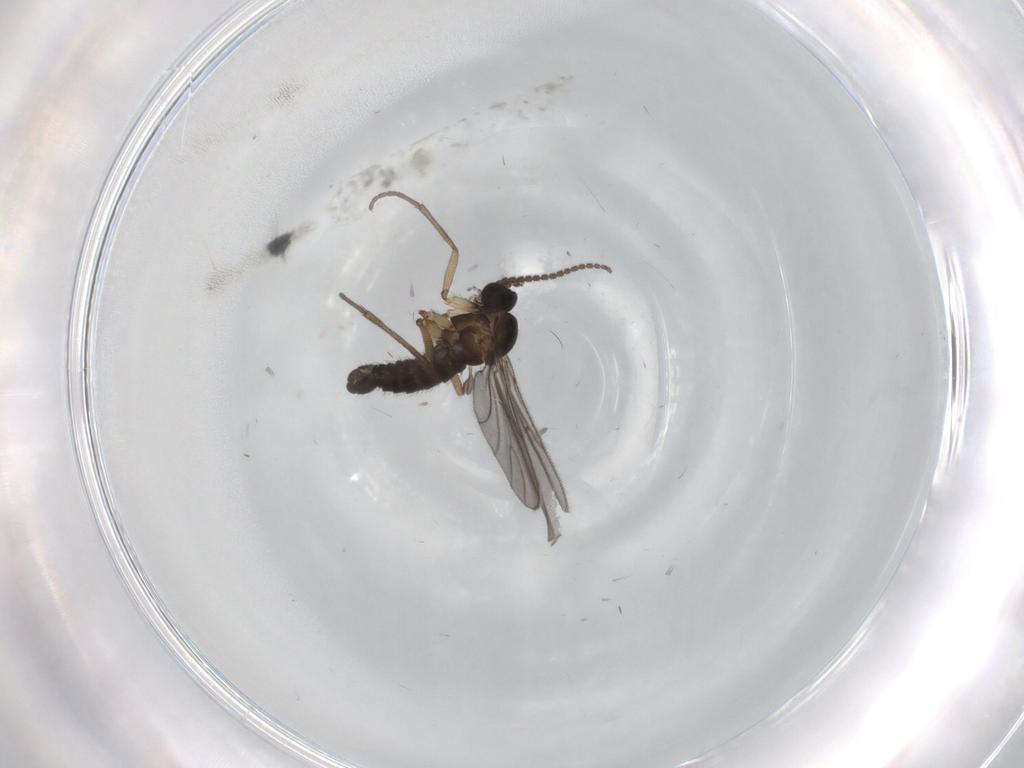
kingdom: Animalia
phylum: Arthropoda
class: Insecta
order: Diptera
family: Sciaridae
